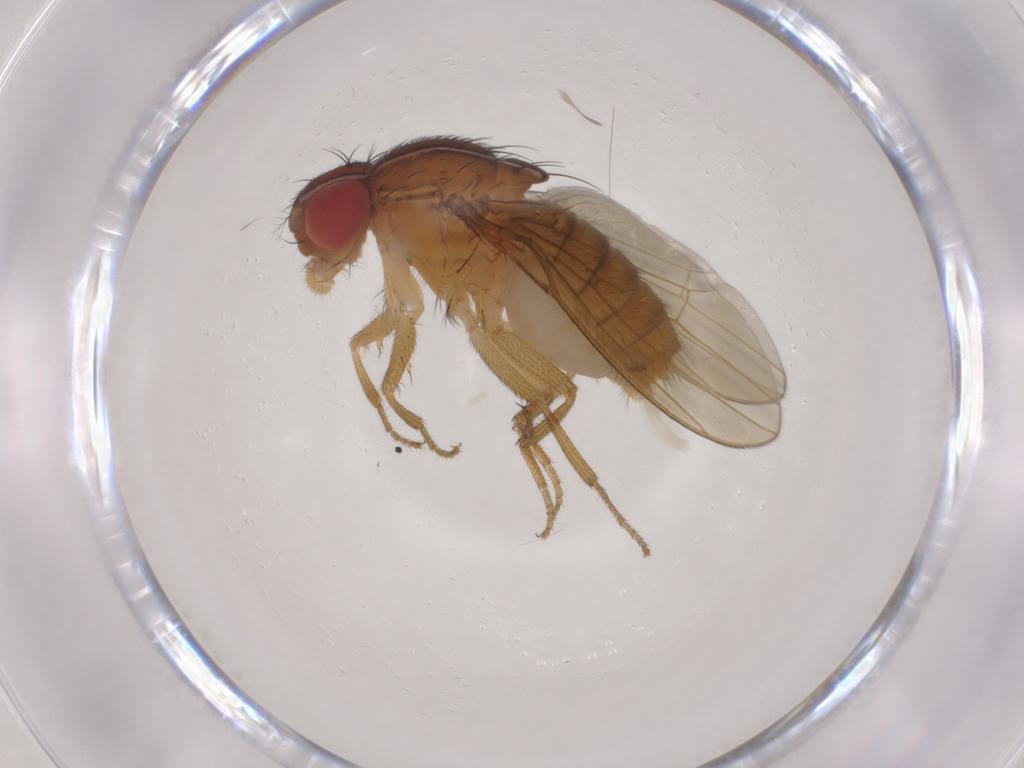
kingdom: Animalia
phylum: Arthropoda
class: Insecta
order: Diptera
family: Drosophilidae
